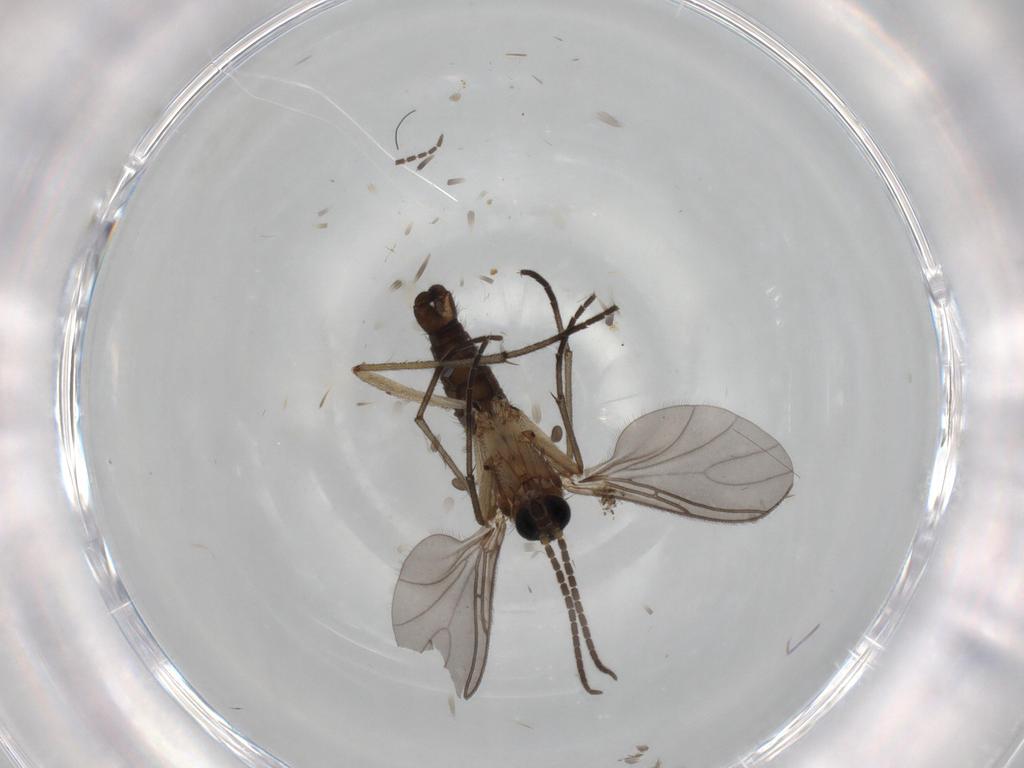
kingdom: Animalia
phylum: Arthropoda
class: Insecta
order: Diptera
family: Sciaridae
